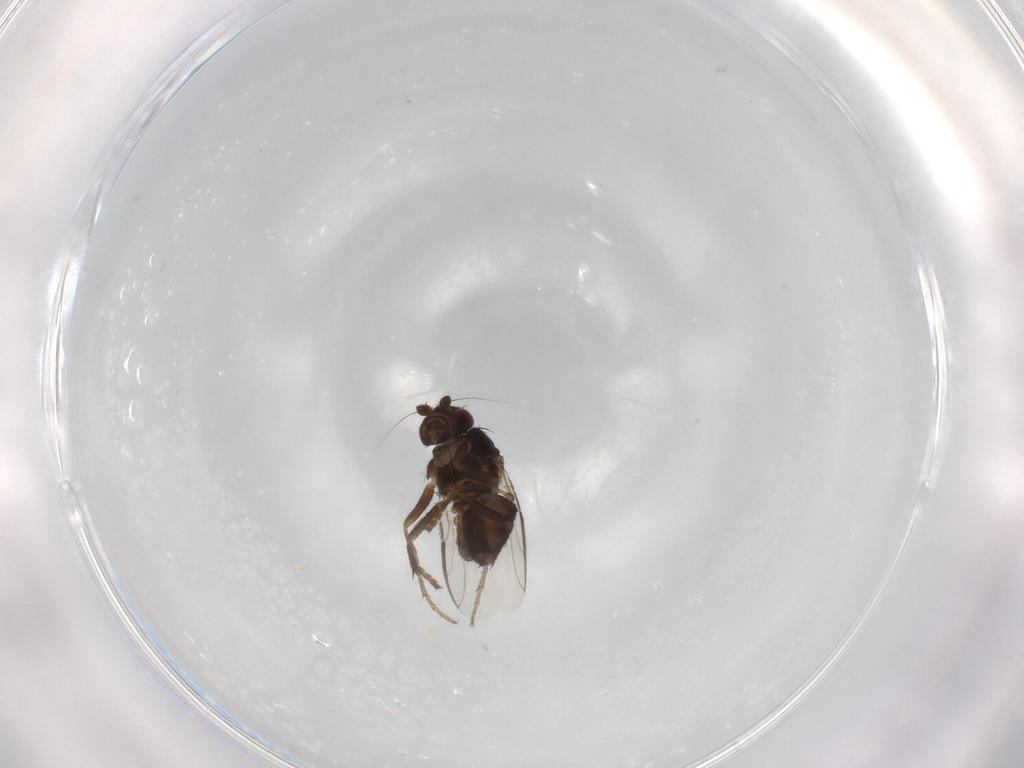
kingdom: Animalia
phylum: Arthropoda
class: Insecta
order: Diptera
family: Sphaeroceridae
